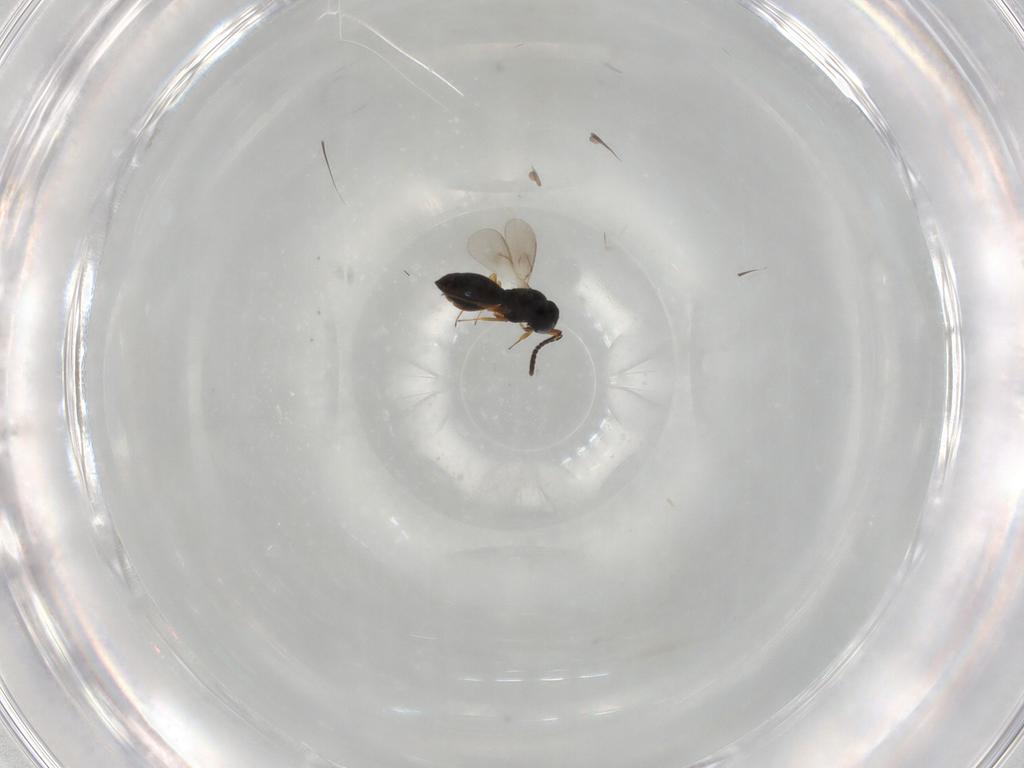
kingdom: Animalia
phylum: Arthropoda
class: Insecta
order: Hymenoptera
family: Scelionidae
